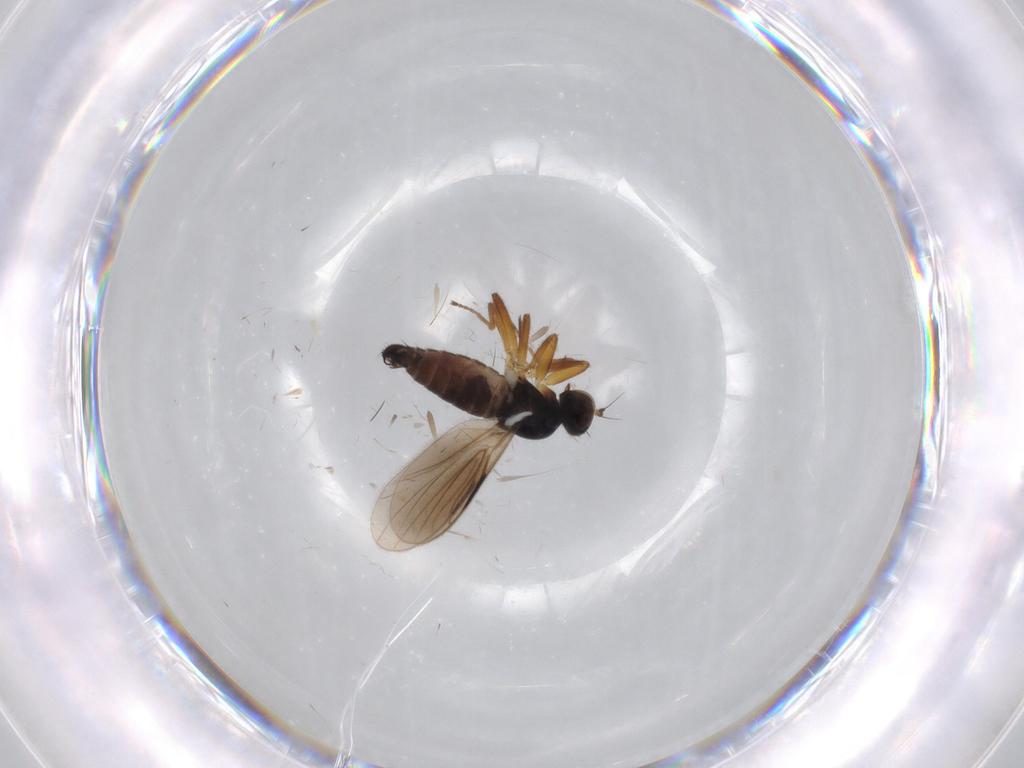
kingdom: Animalia
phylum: Arthropoda
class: Insecta
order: Diptera
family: Hybotidae
